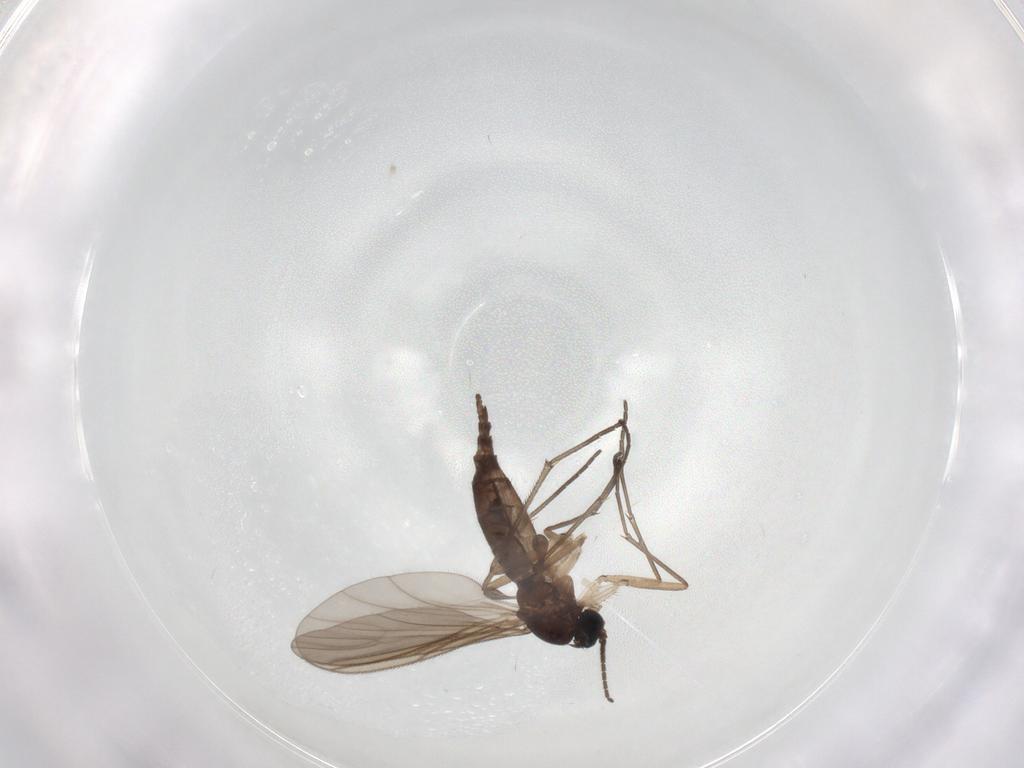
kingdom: Animalia
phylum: Arthropoda
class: Insecta
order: Diptera
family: Sciaridae
